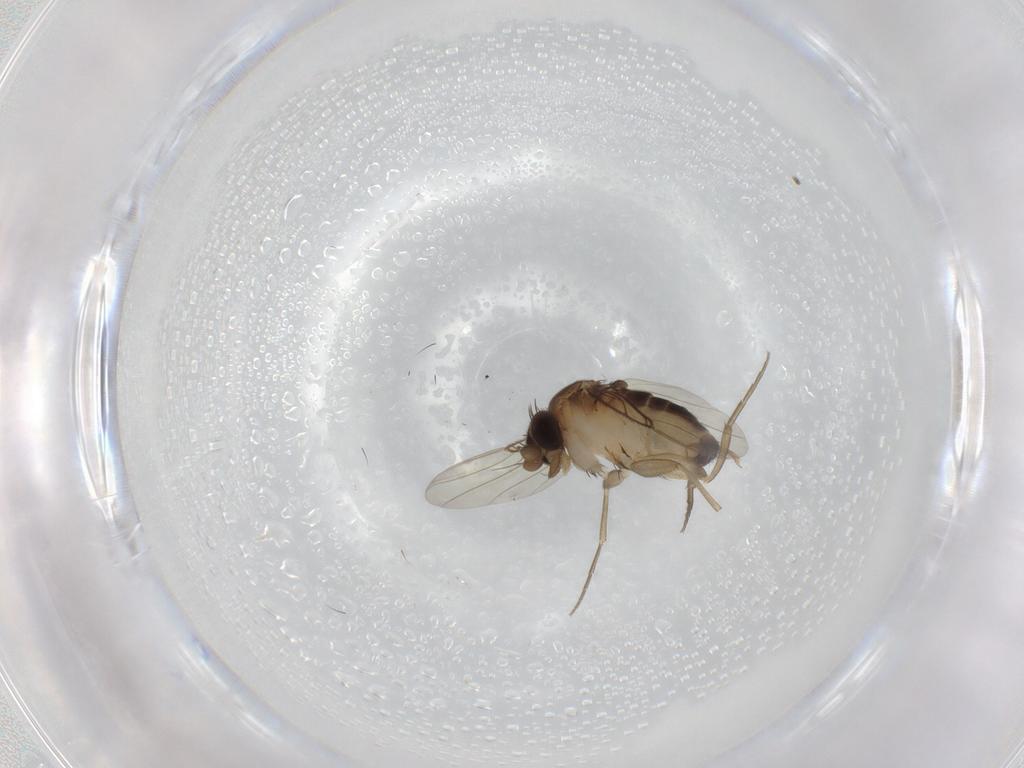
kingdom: Animalia
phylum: Arthropoda
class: Insecta
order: Diptera
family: Phoridae
